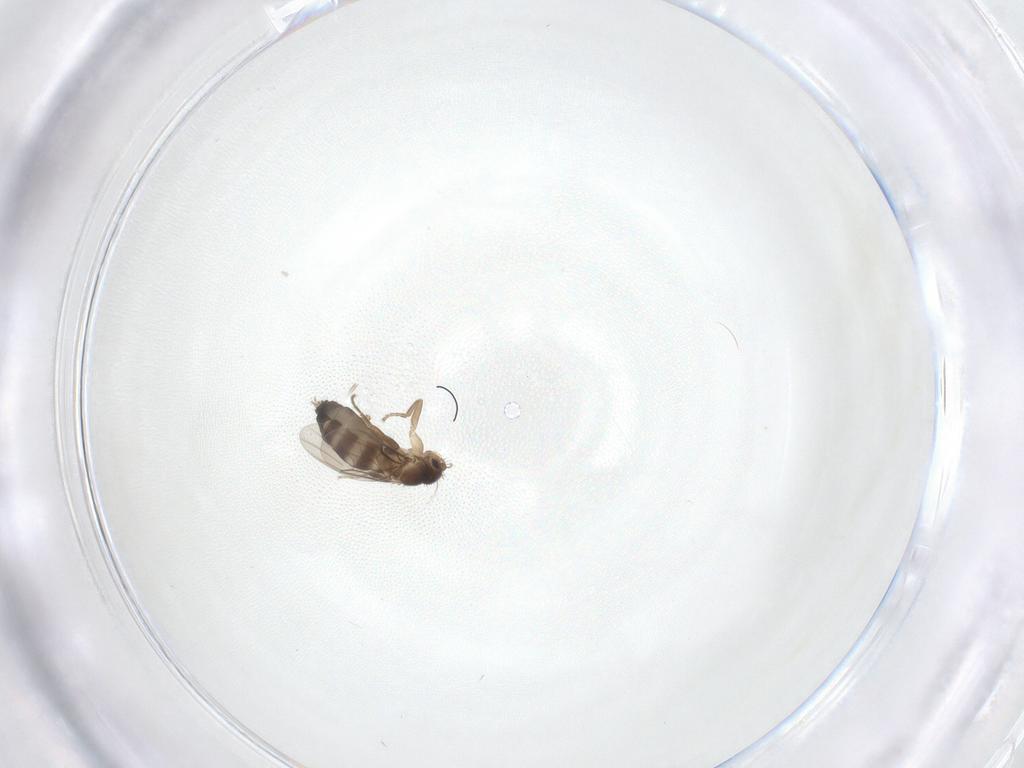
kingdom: Animalia
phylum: Arthropoda
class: Insecta
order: Diptera
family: Phoridae
